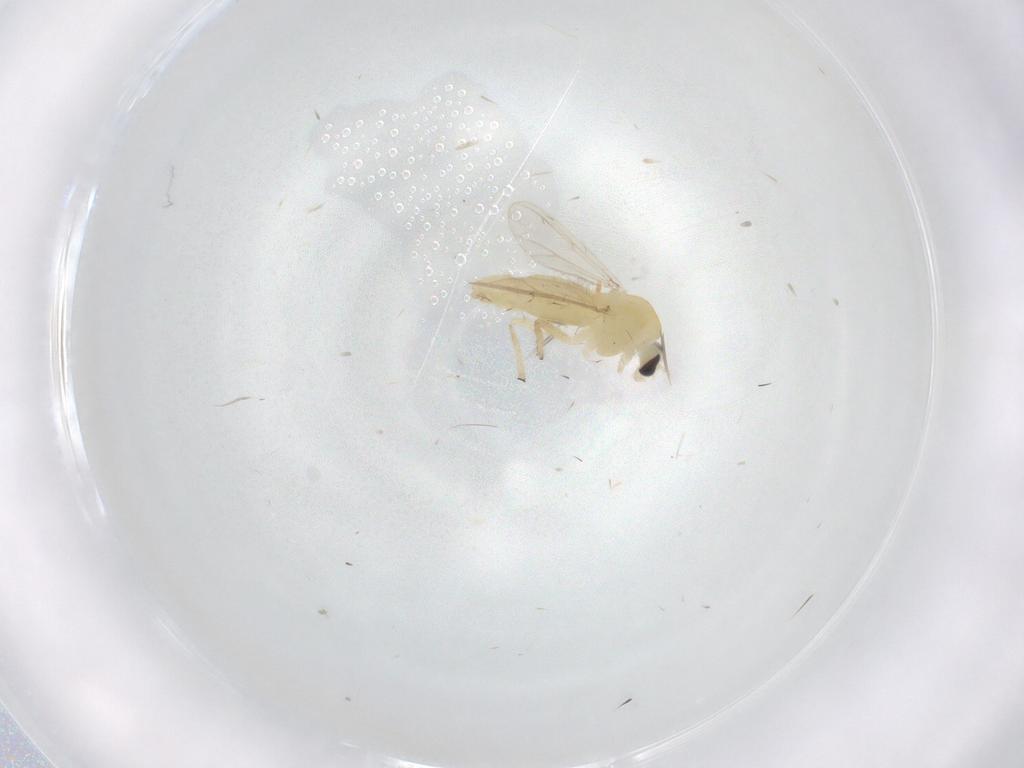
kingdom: Animalia
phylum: Arthropoda
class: Insecta
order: Diptera
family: Chironomidae
